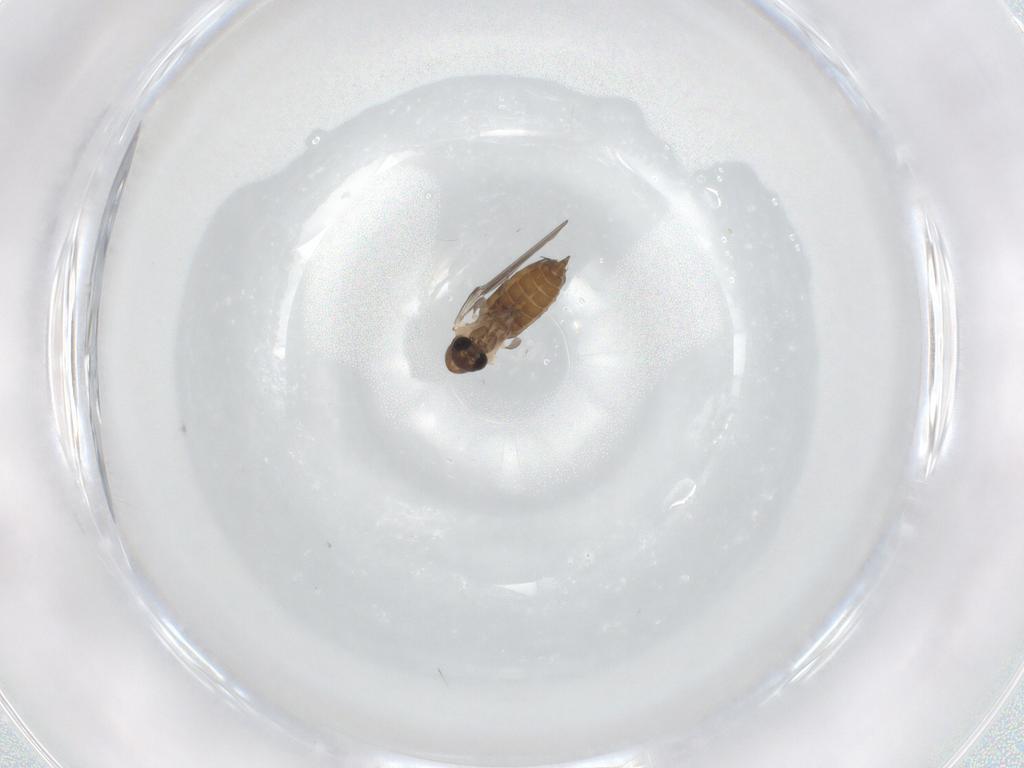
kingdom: Animalia
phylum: Arthropoda
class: Insecta
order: Diptera
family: Psychodidae
